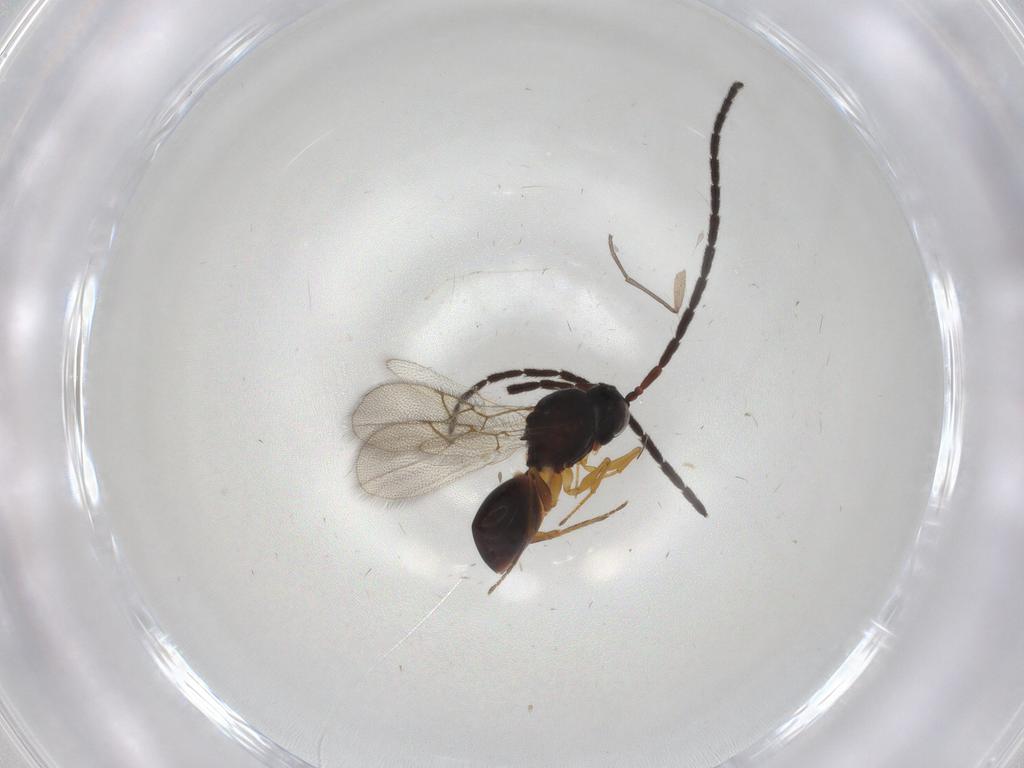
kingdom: Animalia
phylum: Arthropoda
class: Insecta
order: Hymenoptera
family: Figitidae
